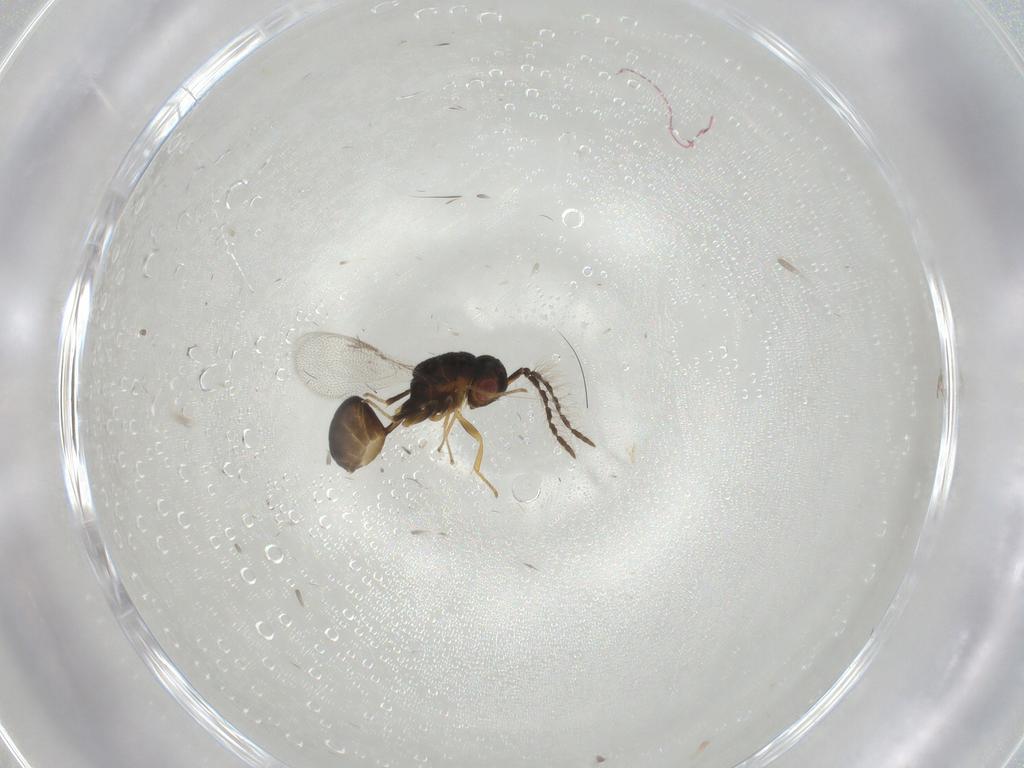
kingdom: Animalia
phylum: Arthropoda
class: Insecta
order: Hymenoptera
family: Eurytomidae
